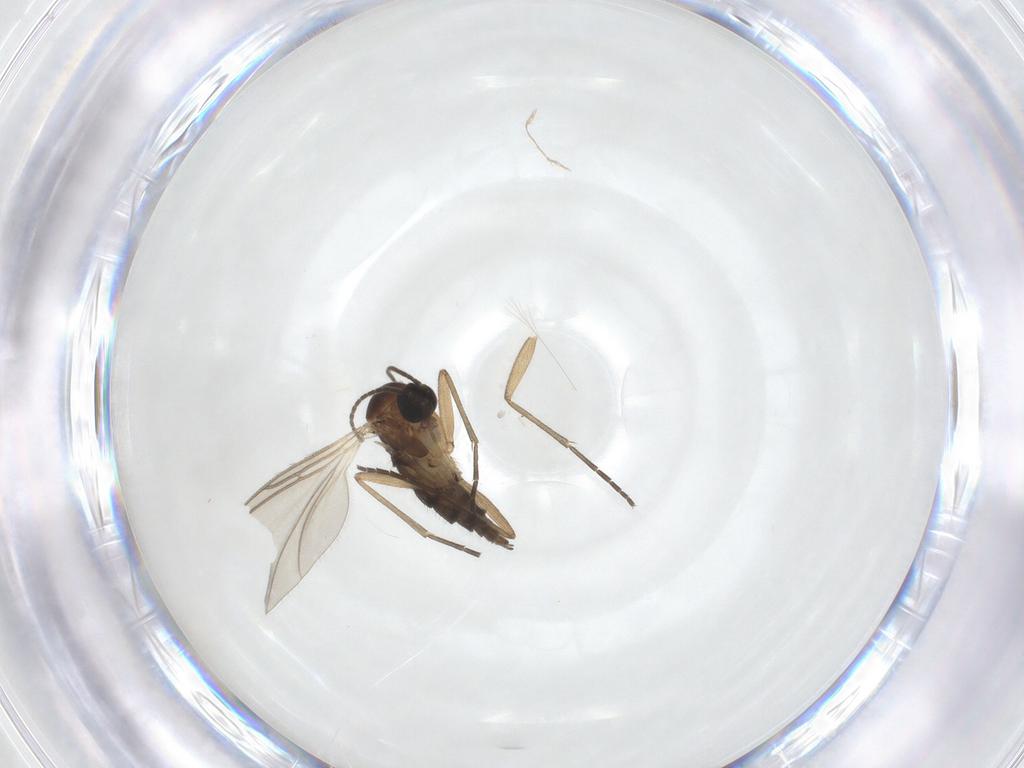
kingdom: Animalia
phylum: Arthropoda
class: Insecta
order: Diptera
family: Sciaridae
